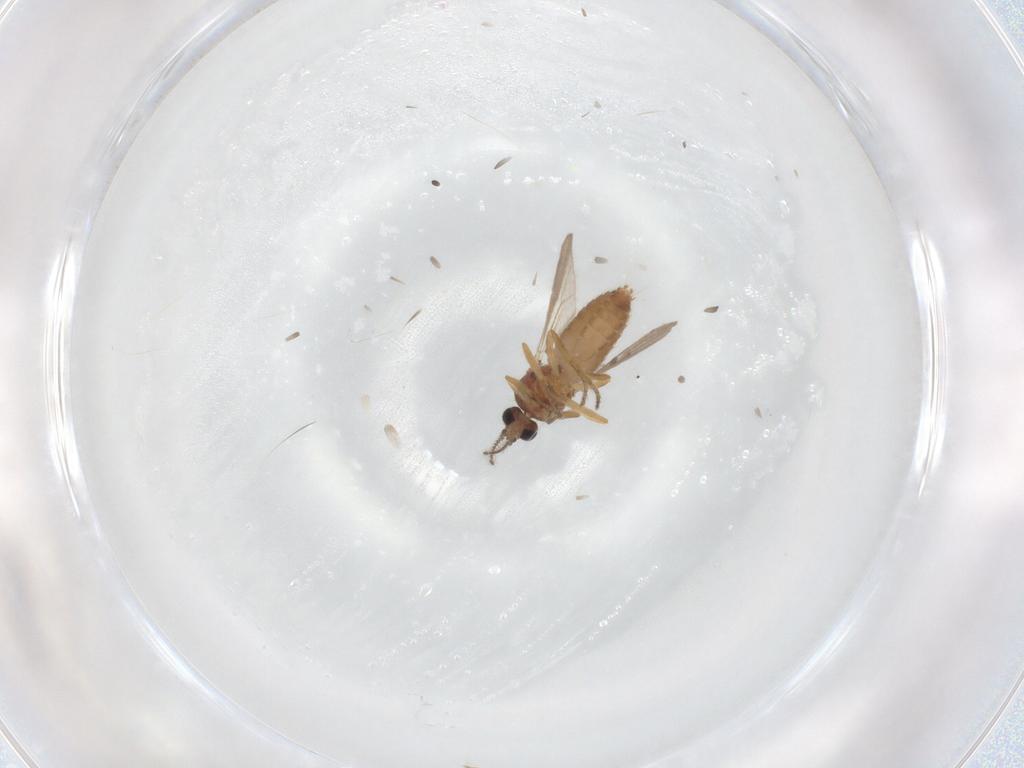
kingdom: Animalia
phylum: Arthropoda
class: Insecta
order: Diptera
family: Ceratopogonidae
